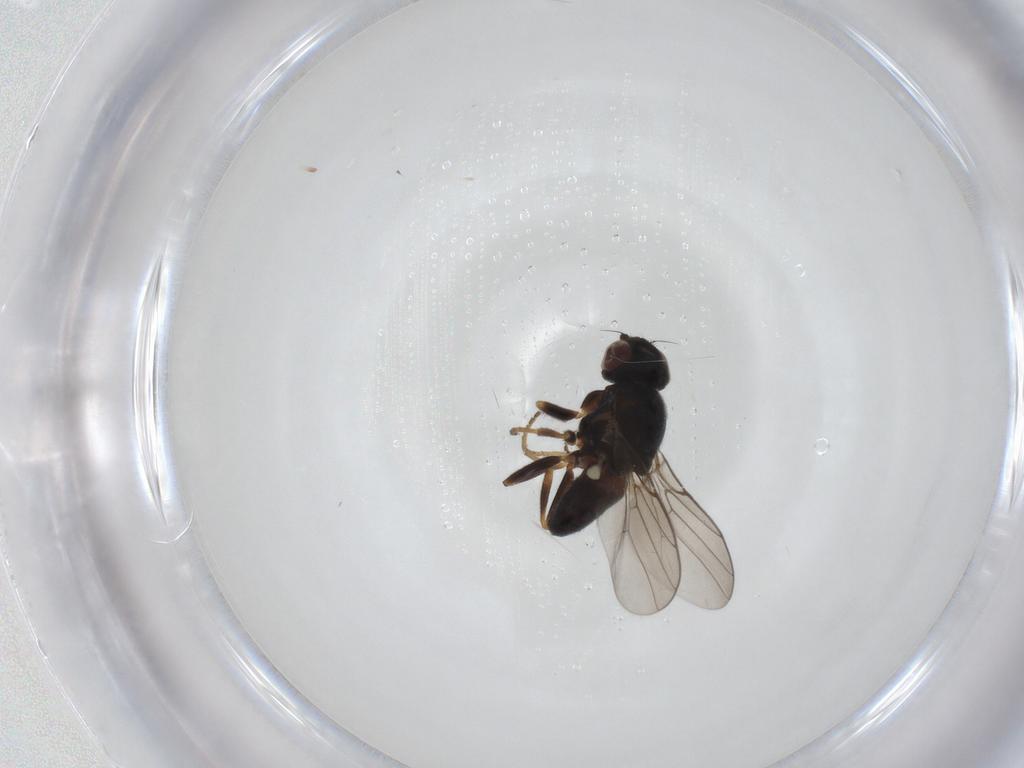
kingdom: Animalia
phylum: Arthropoda
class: Insecta
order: Diptera
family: Chloropidae
